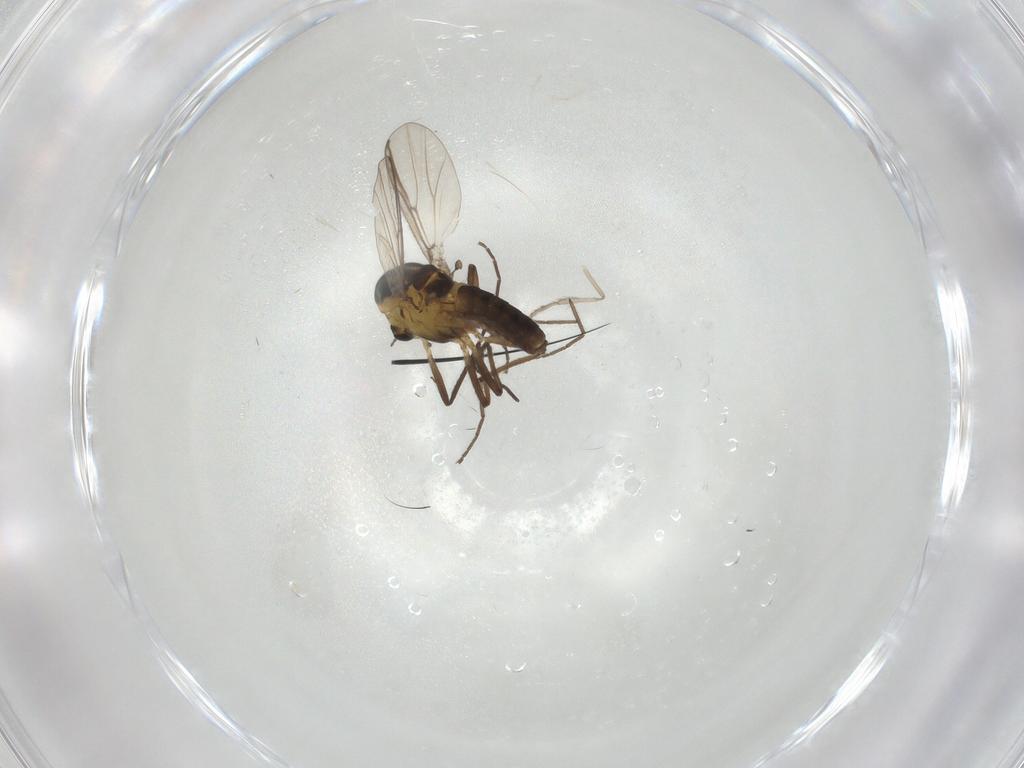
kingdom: Animalia
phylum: Arthropoda
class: Insecta
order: Diptera
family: Chironomidae
